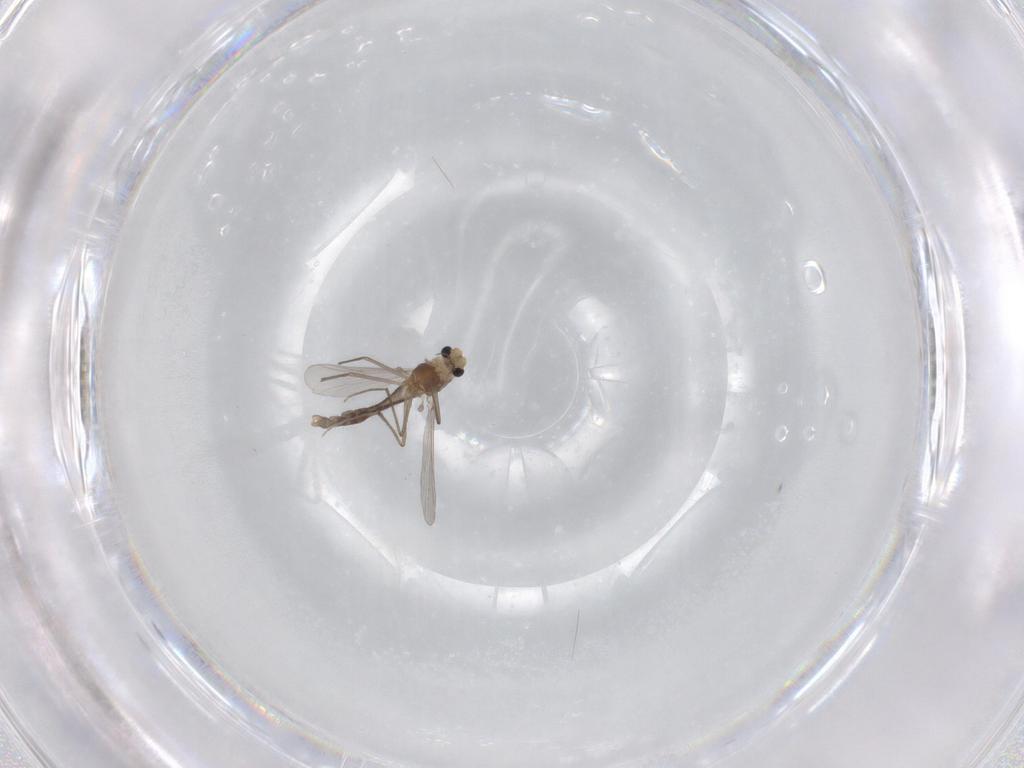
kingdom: Animalia
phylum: Arthropoda
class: Insecta
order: Diptera
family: Chironomidae
